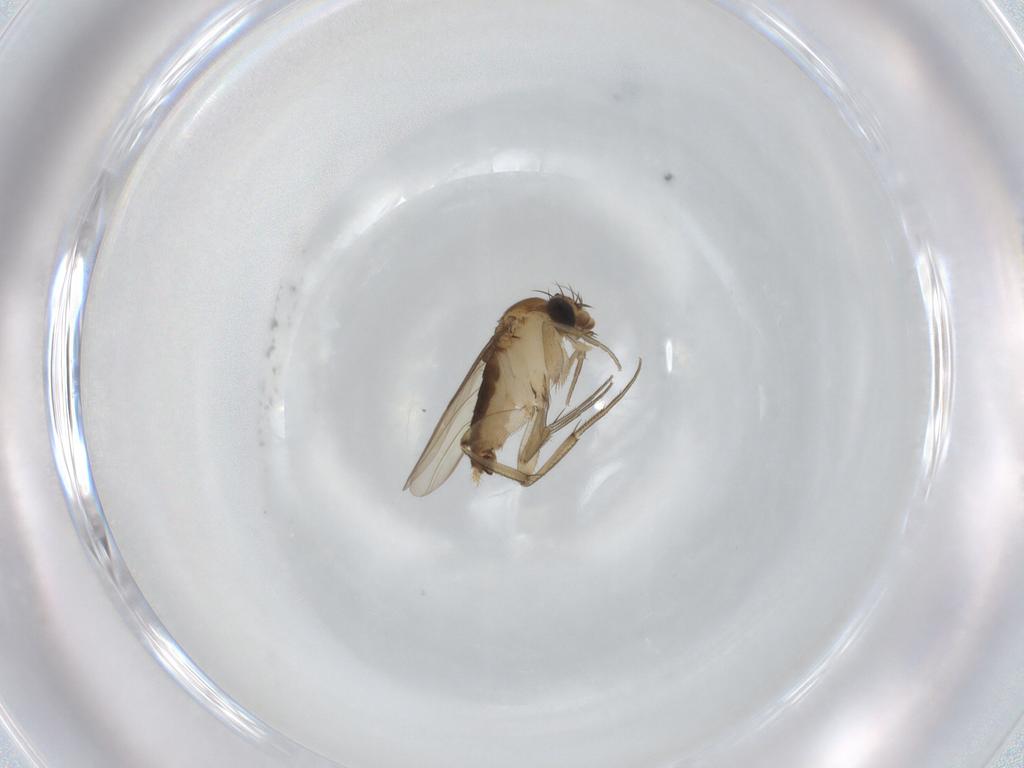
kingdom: Animalia
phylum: Arthropoda
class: Insecta
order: Diptera
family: Phoridae
